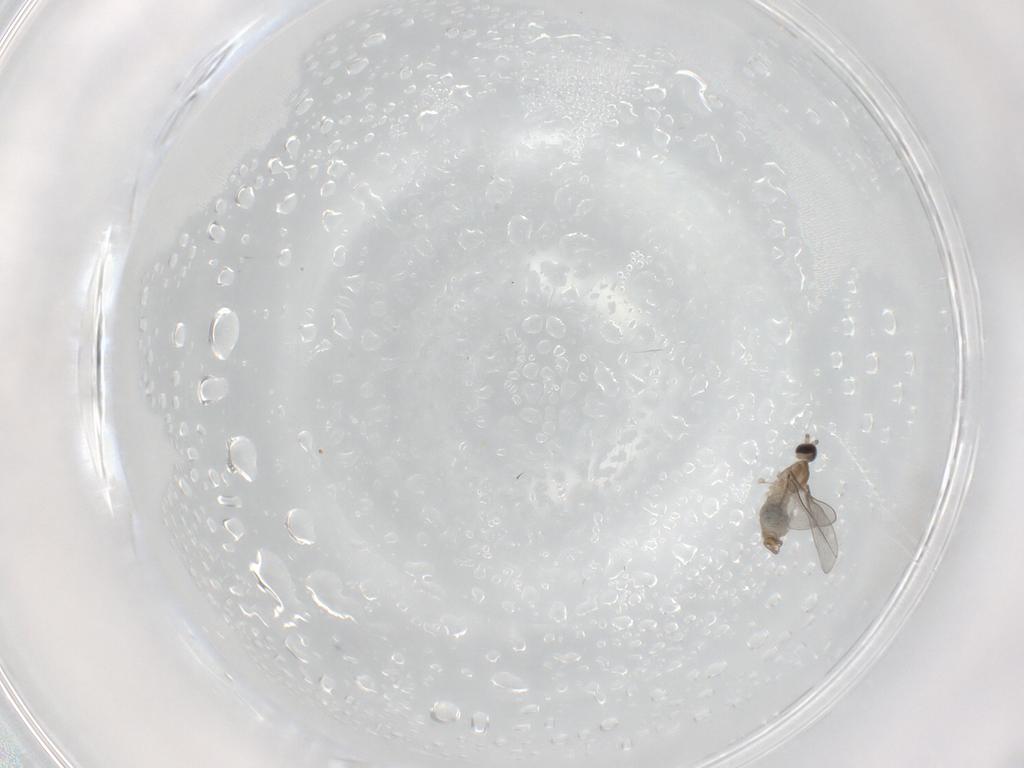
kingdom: Animalia
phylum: Arthropoda
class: Insecta
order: Diptera
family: Cecidomyiidae
